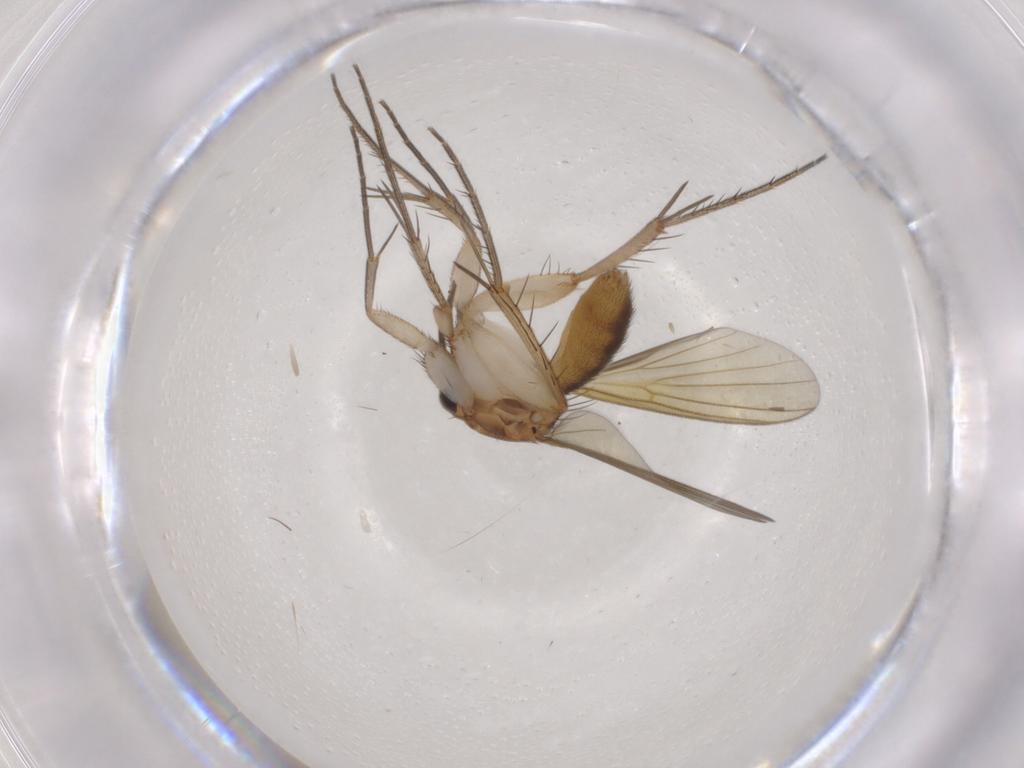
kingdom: Animalia
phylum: Arthropoda
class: Insecta
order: Diptera
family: Mycetophilidae
